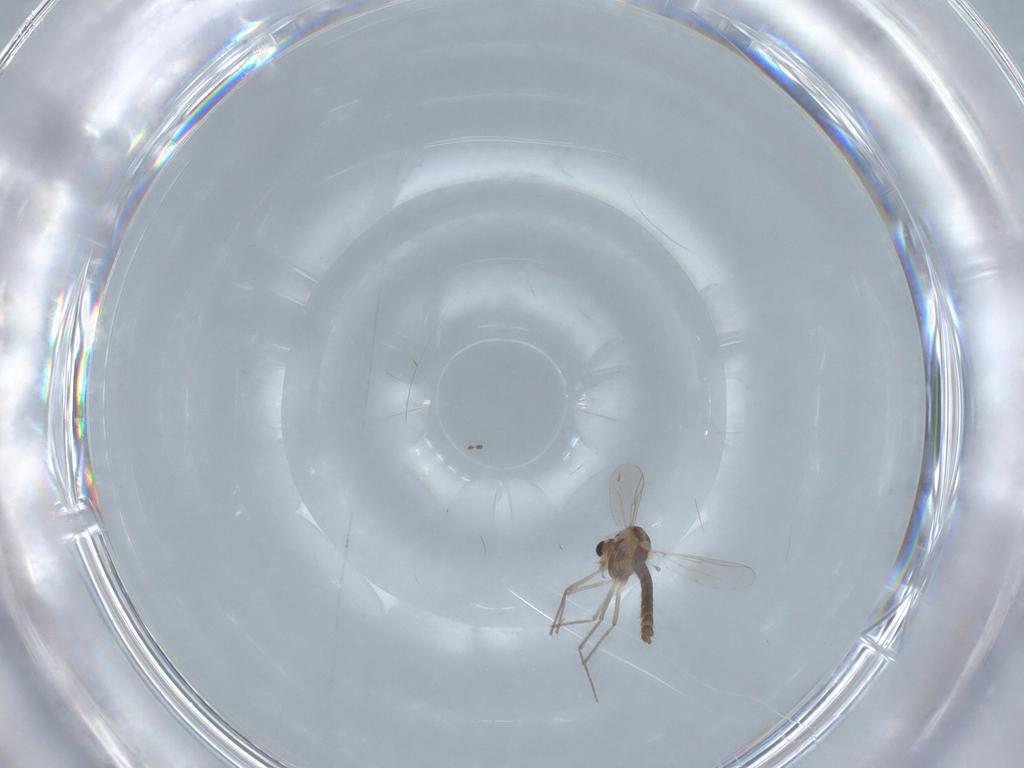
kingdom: Animalia
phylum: Arthropoda
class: Insecta
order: Diptera
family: Chironomidae
